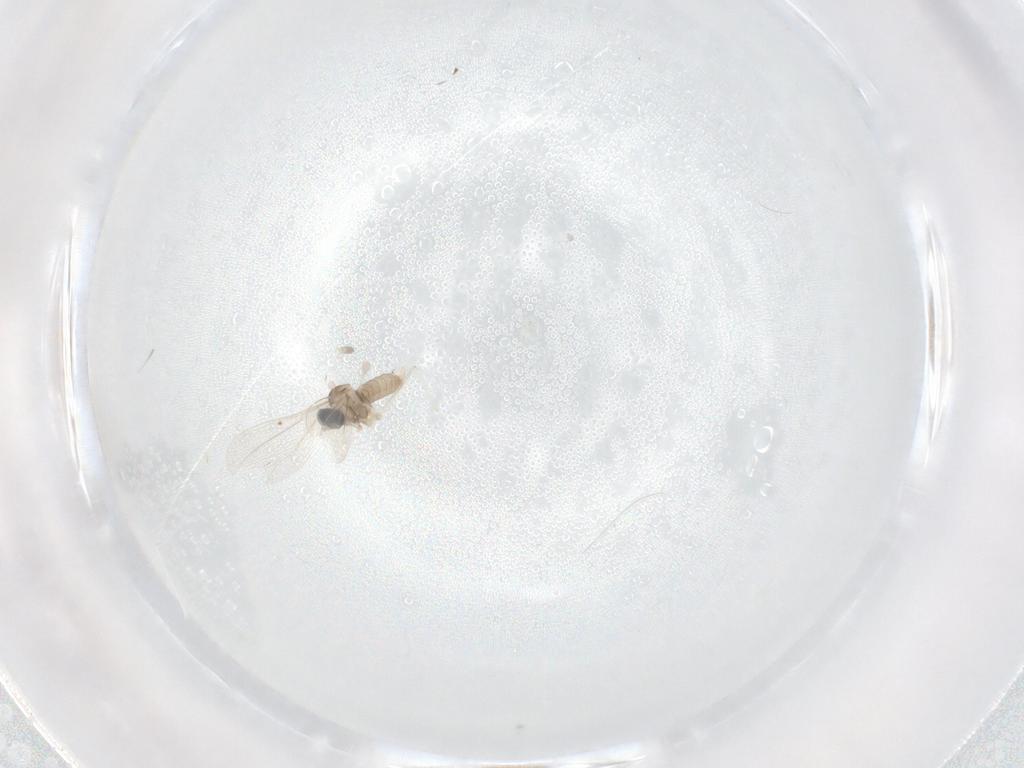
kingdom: Animalia
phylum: Arthropoda
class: Insecta
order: Diptera
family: Cecidomyiidae
